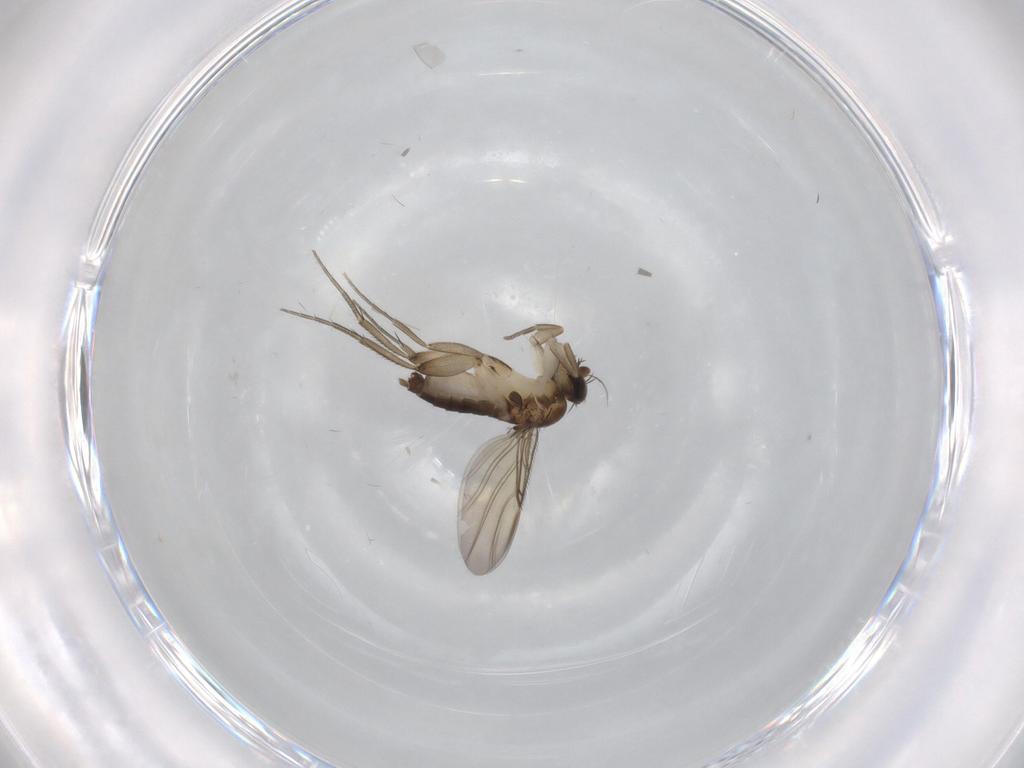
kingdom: Animalia
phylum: Arthropoda
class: Insecta
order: Diptera
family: Phoridae
